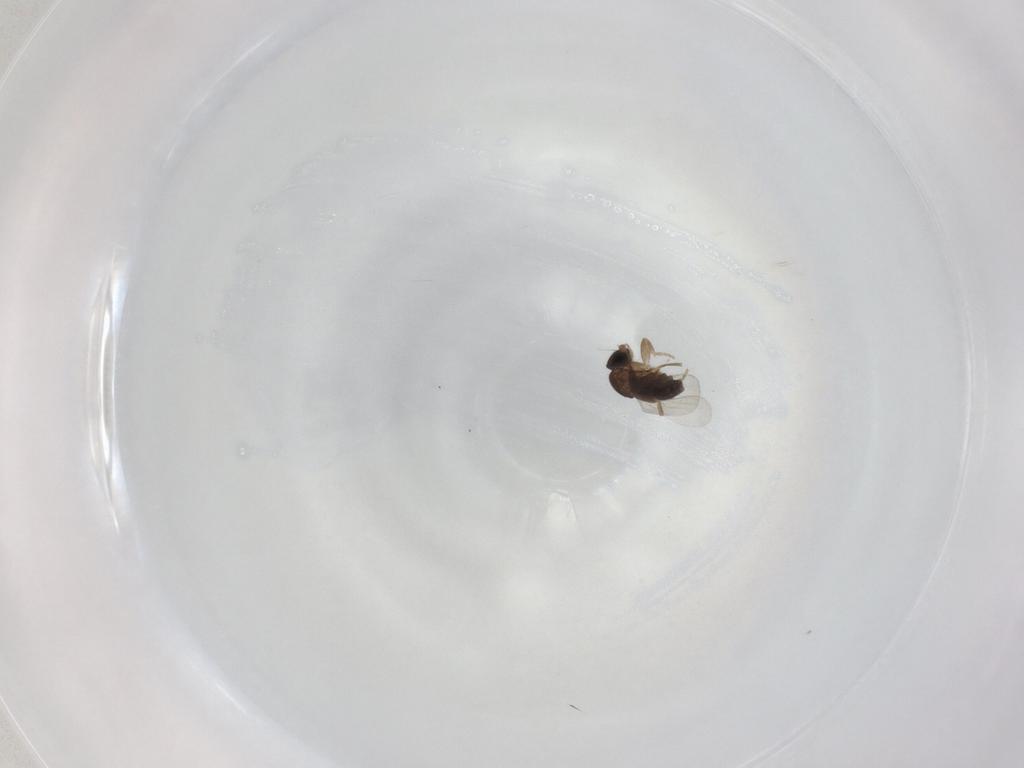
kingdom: Animalia
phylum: Arthropoda
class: Insecta
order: Diptera
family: Phoridae
